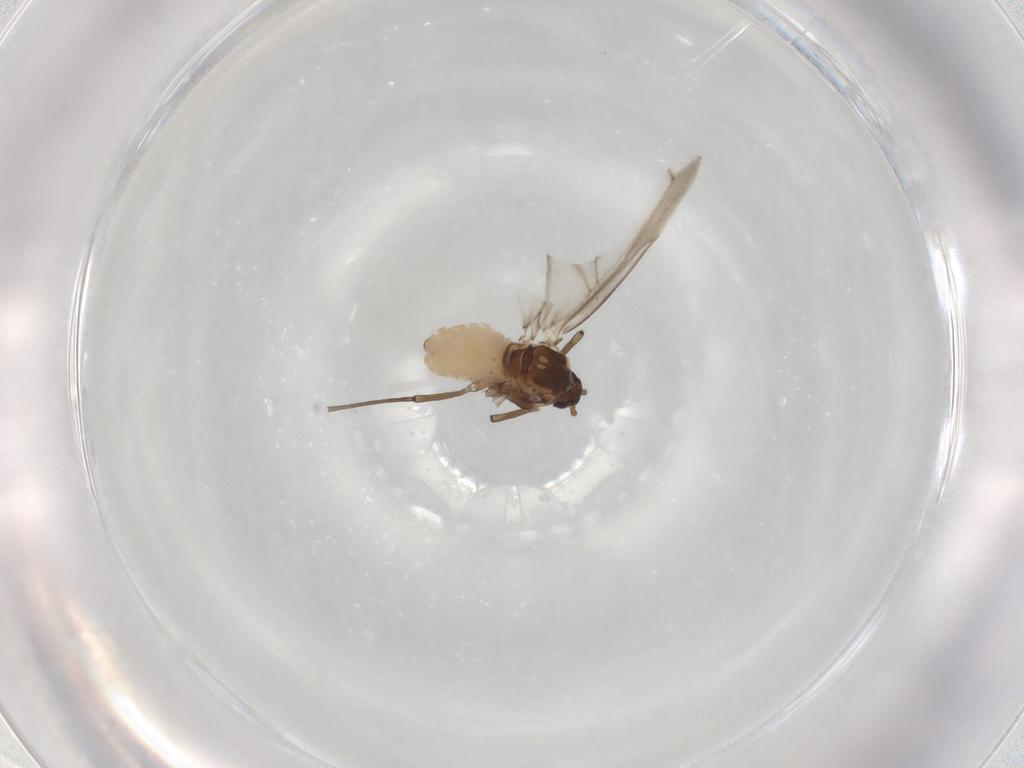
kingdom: Animalia
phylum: Arthropoda
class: Insecta
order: Hemiptera
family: Aphididae
